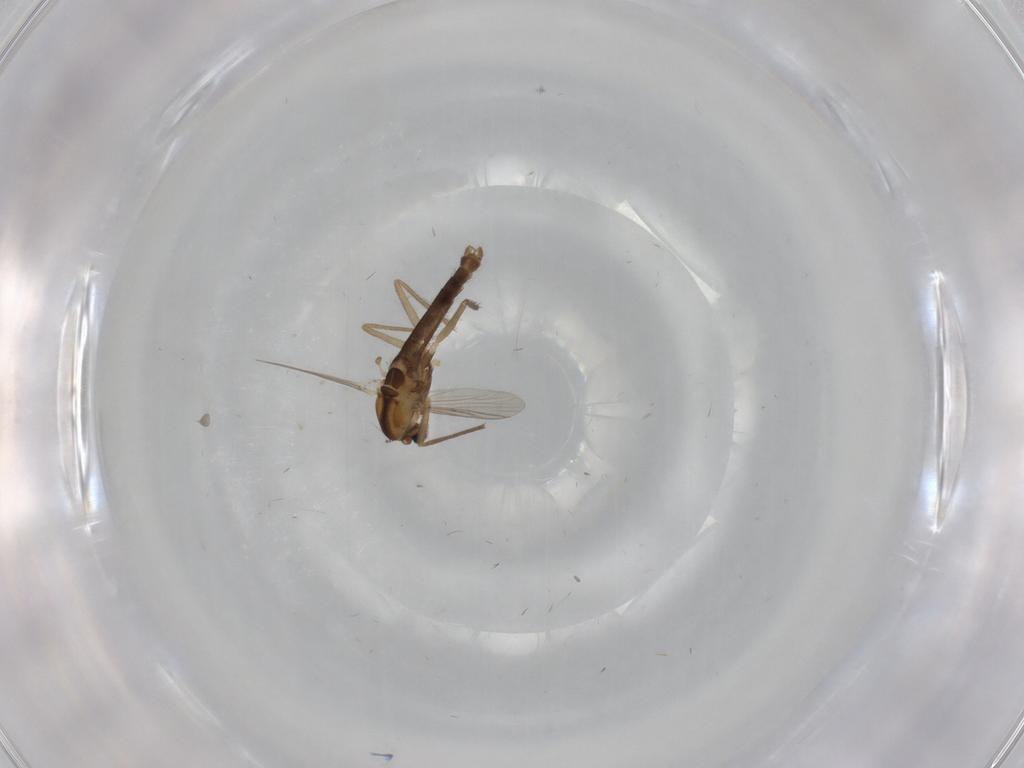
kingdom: Animalia
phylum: Arthropoda
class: Insecta
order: Diptera
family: Chironomidae
